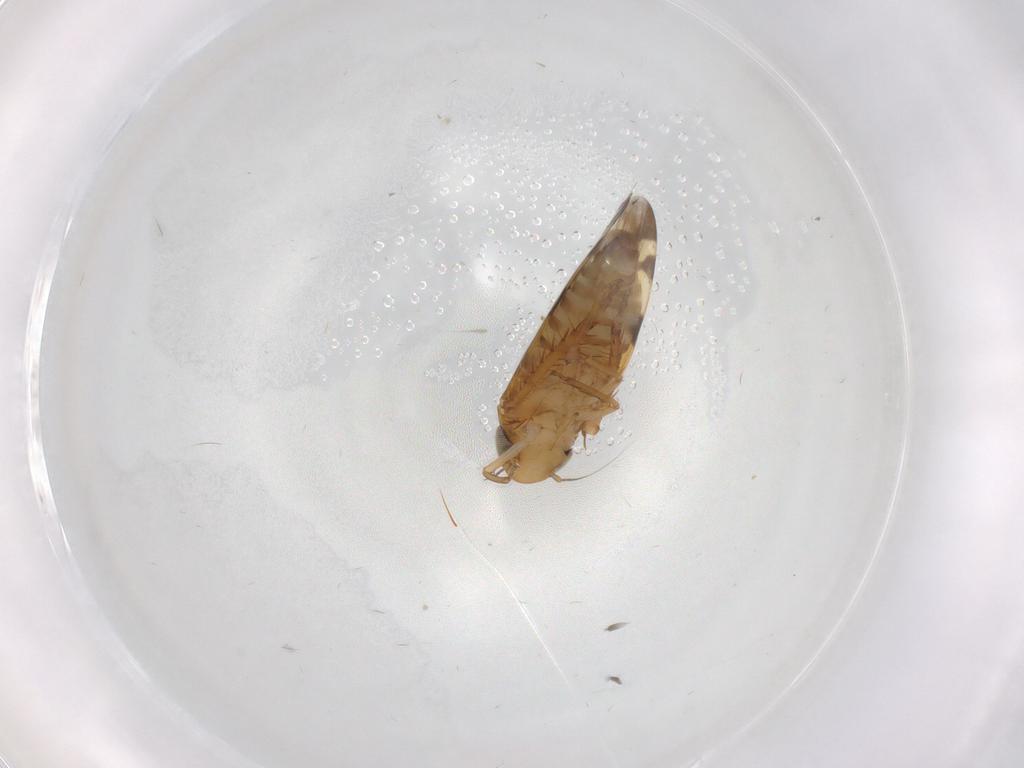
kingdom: Animalia
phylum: Arthropoda
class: Insecta
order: Hemiptera
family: Cicadellidae
